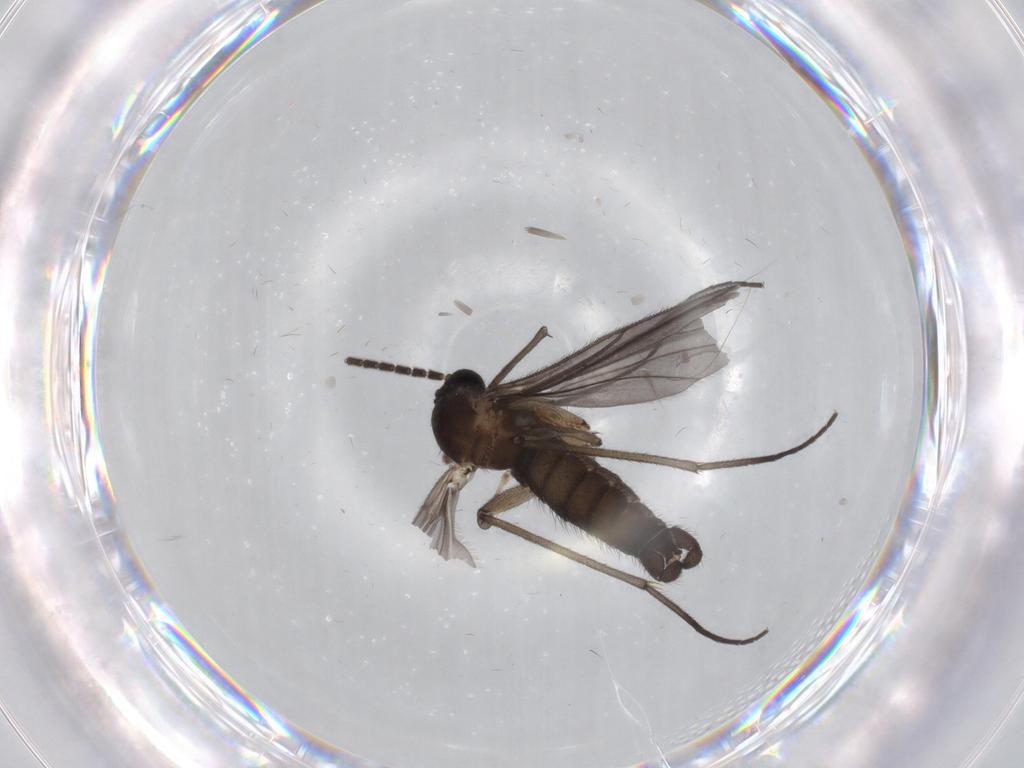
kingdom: Animalia
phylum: Arthropoda
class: Insecta
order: Diptera
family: Sciaridae
